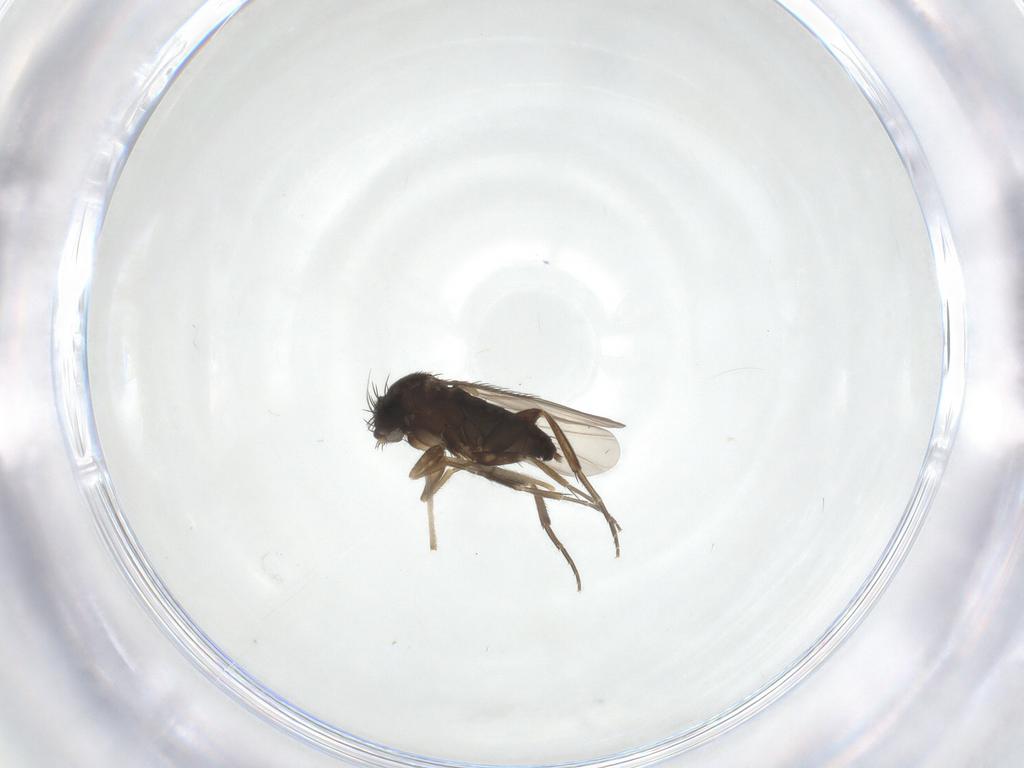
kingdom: Animalia
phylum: Arthropoda
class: Insecta
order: Diptera
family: Phoridae
